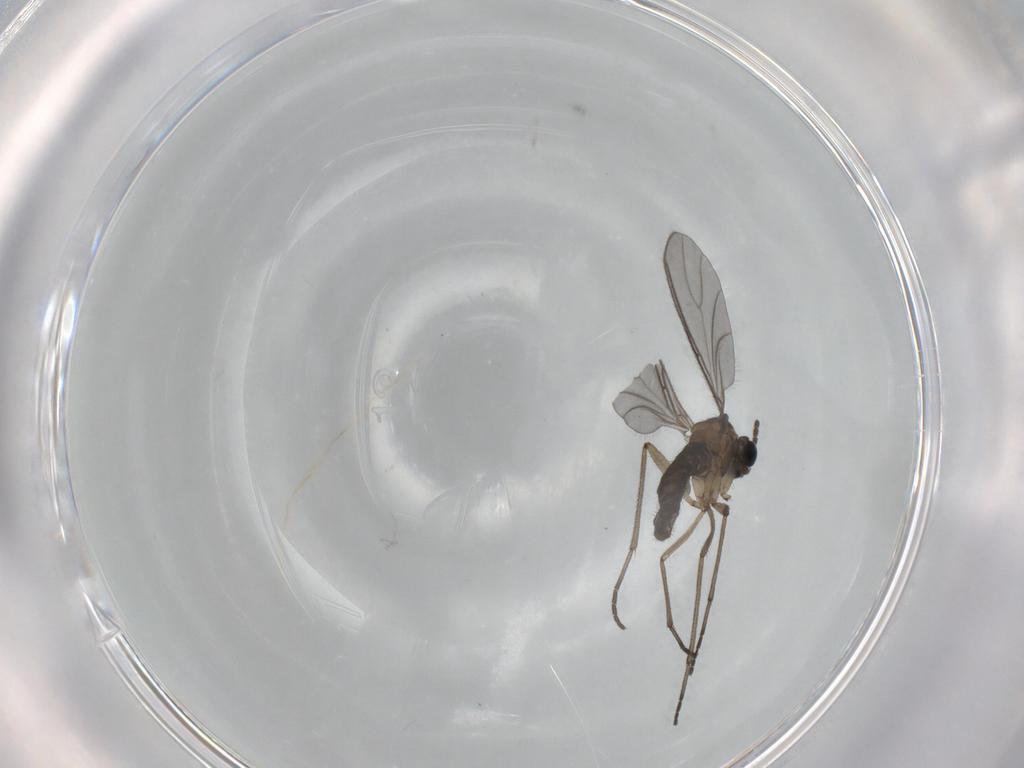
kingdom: Animalia
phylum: Arthropoda
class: Insecta
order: Diptera
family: Sciaridae
